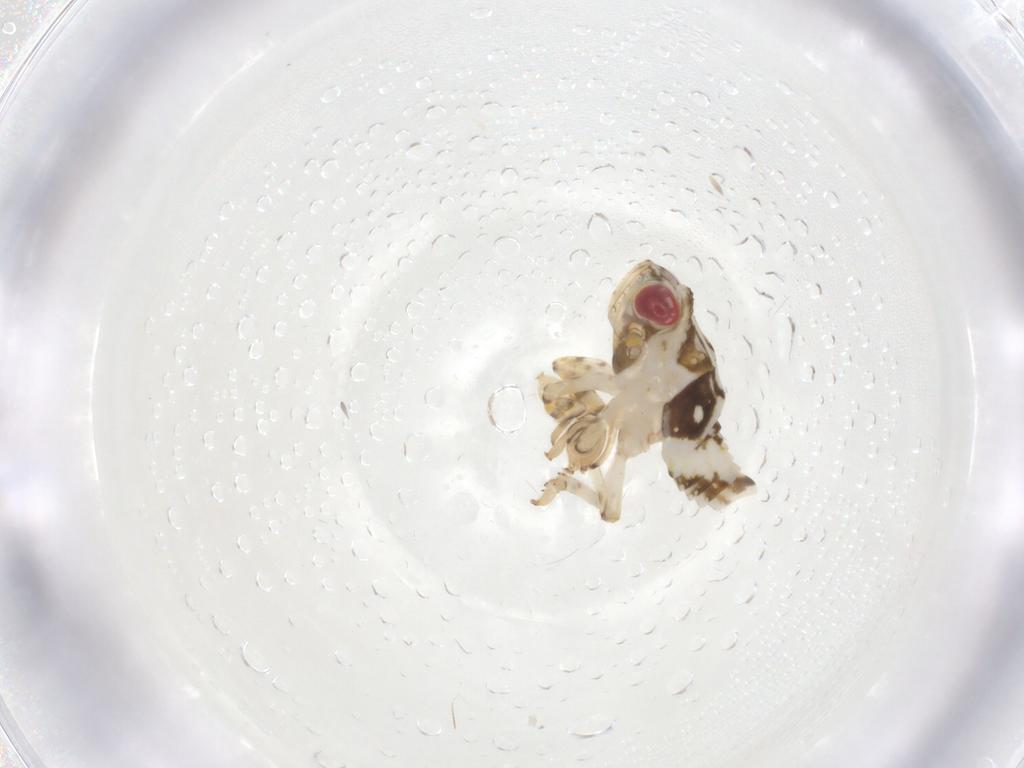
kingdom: Animalia
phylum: Arthropoda
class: Insecta
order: Hemiptera
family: Issidae
